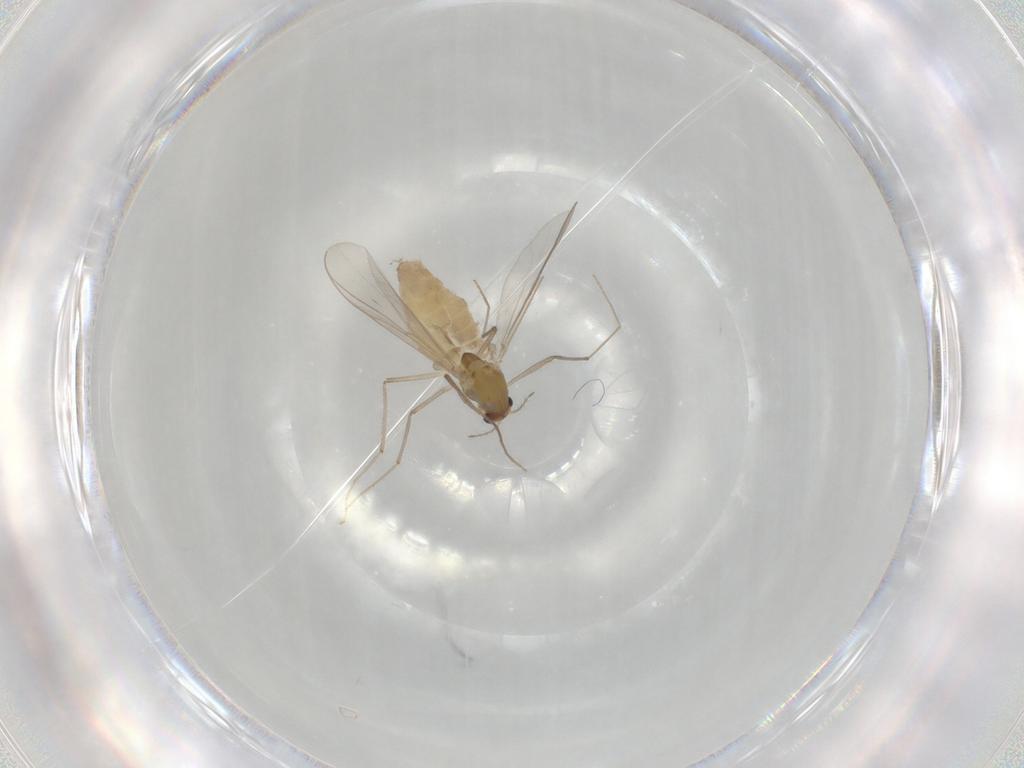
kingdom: Animalia
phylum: Arthropoda
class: Insecta
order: Diptera
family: Chironomidae
